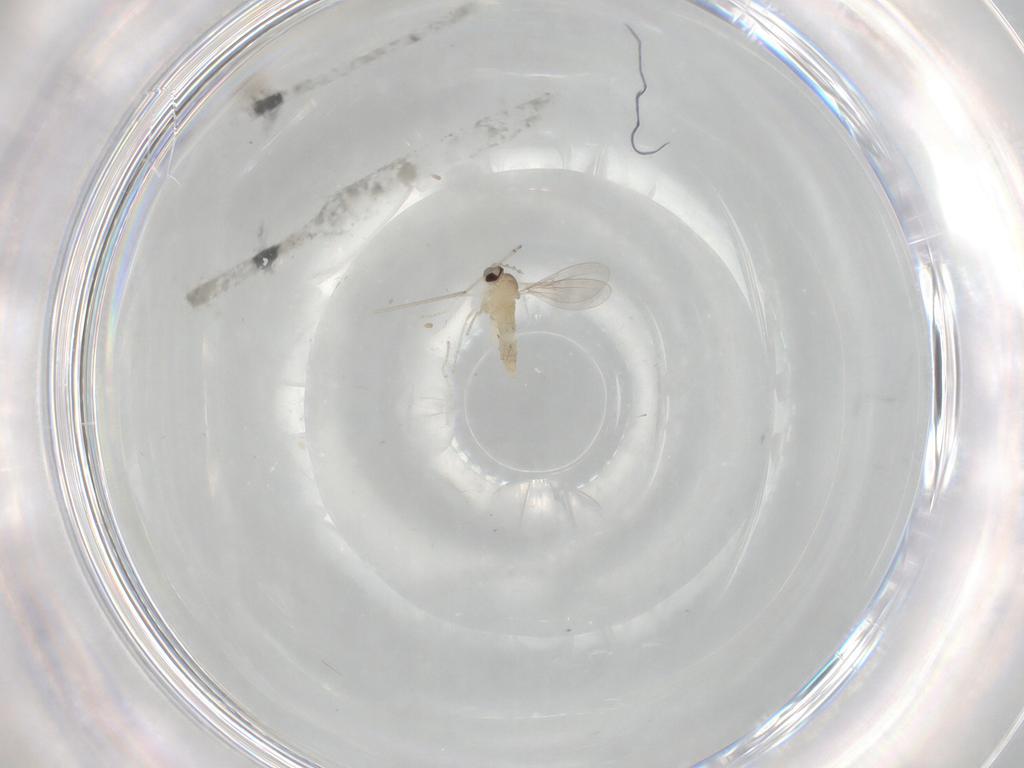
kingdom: Animalia
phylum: Arthropoda
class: Insecta
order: Diptera
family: Cecidomyiidae
